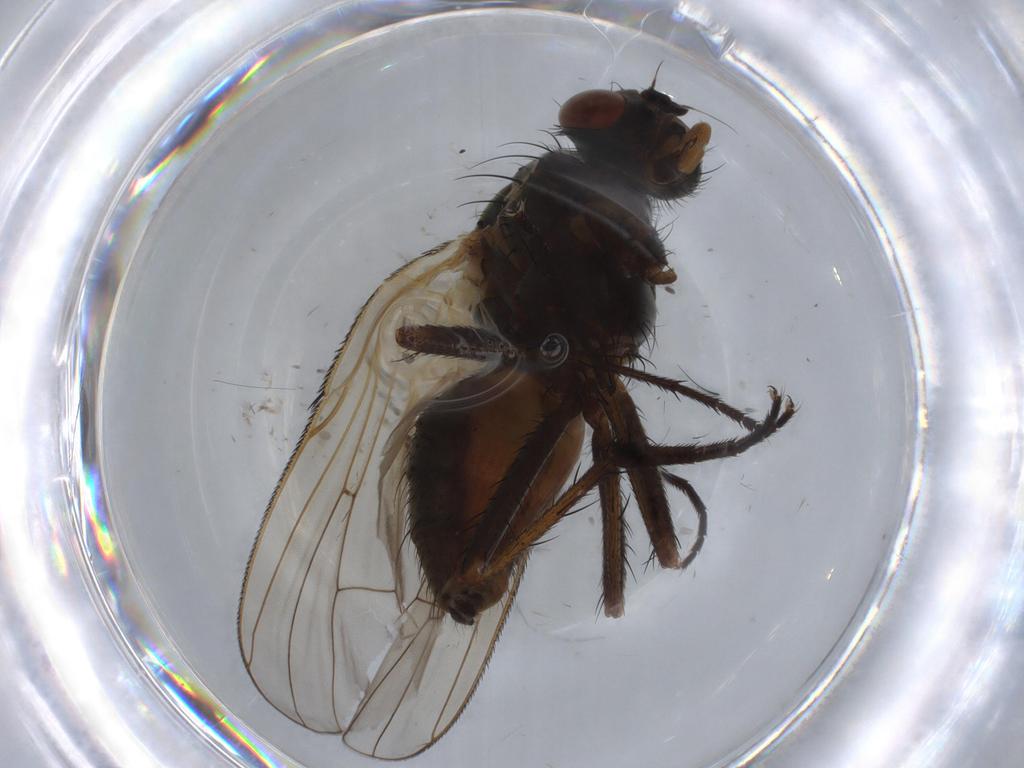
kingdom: Animalia
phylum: Arthropoda
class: Insecta
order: Diptera
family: Anthomyiidae
